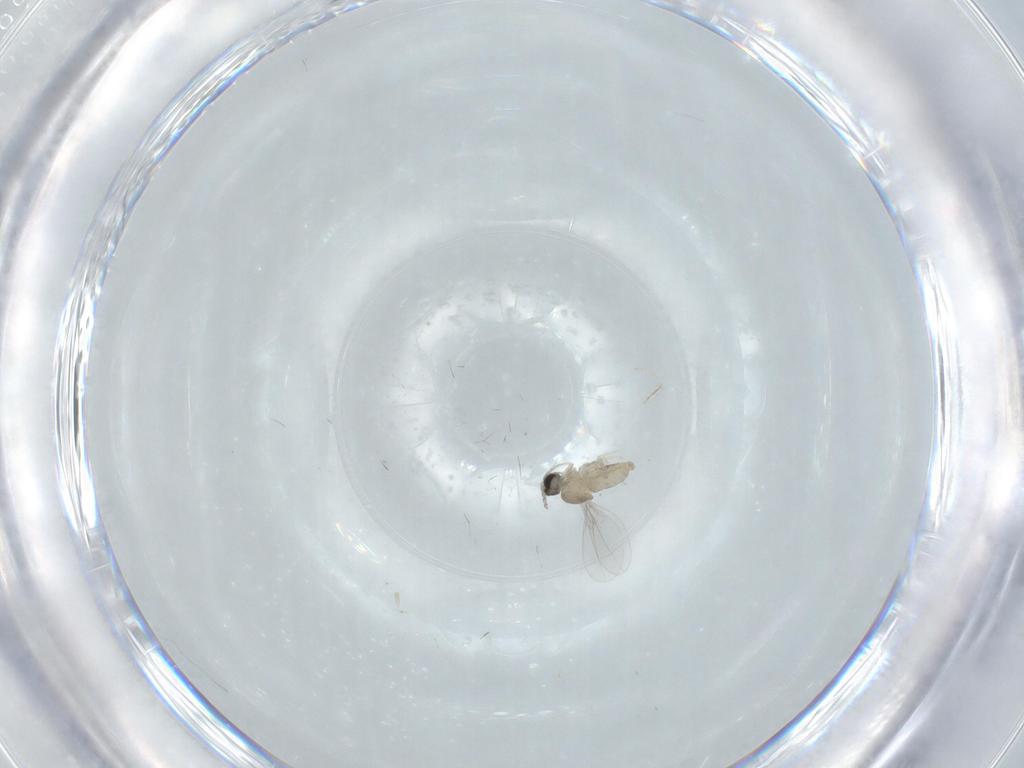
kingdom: Animalia
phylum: Arthropoda
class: Insecta
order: Diptera
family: Cecidomyiidae
